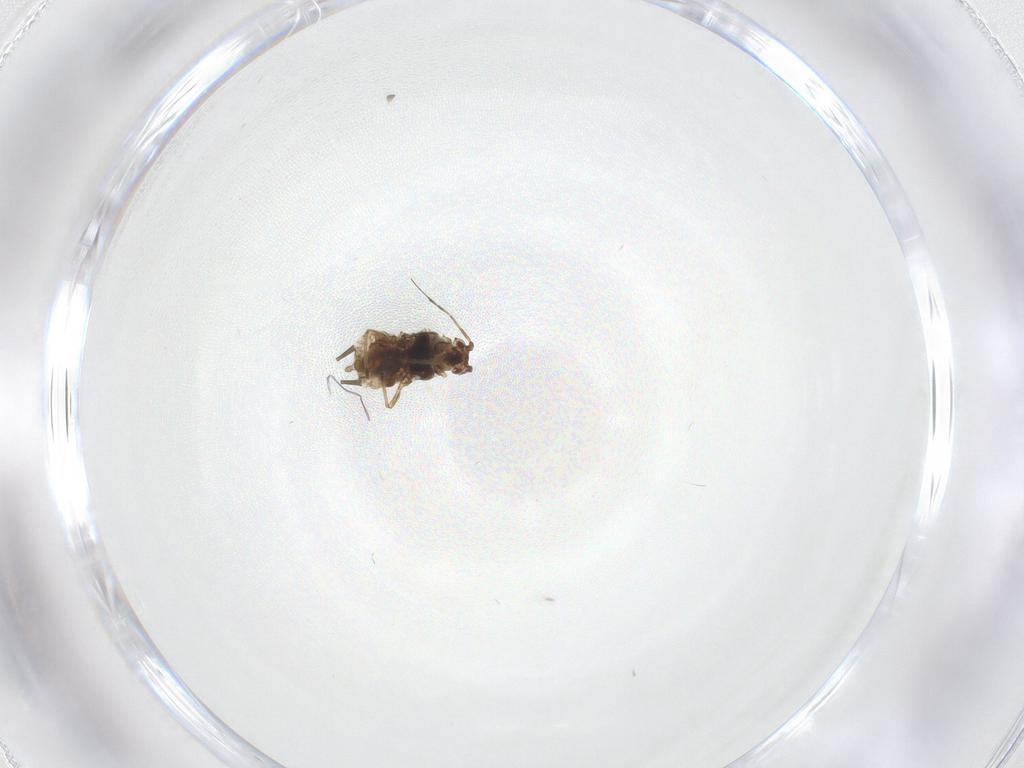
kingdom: Animalia
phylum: Arthropoda
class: Insecta
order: Hemiptera
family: Aphididae
